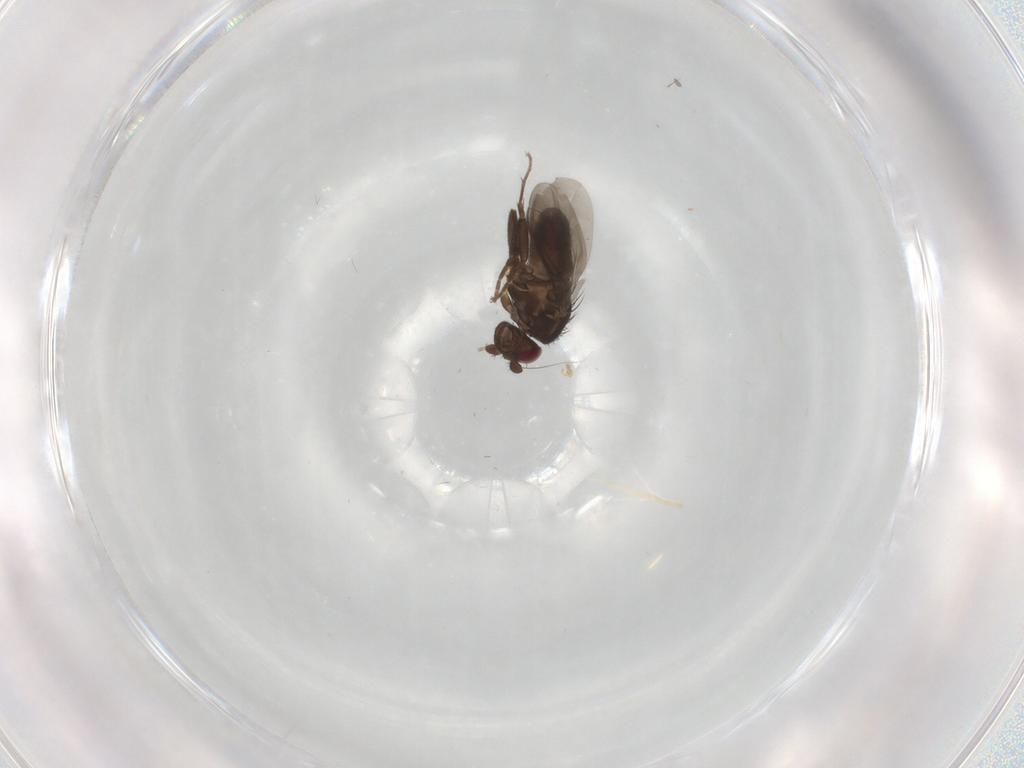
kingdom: Animalia
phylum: Arthropoda
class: Insecta
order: Diptera
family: Sphaeroceridae
